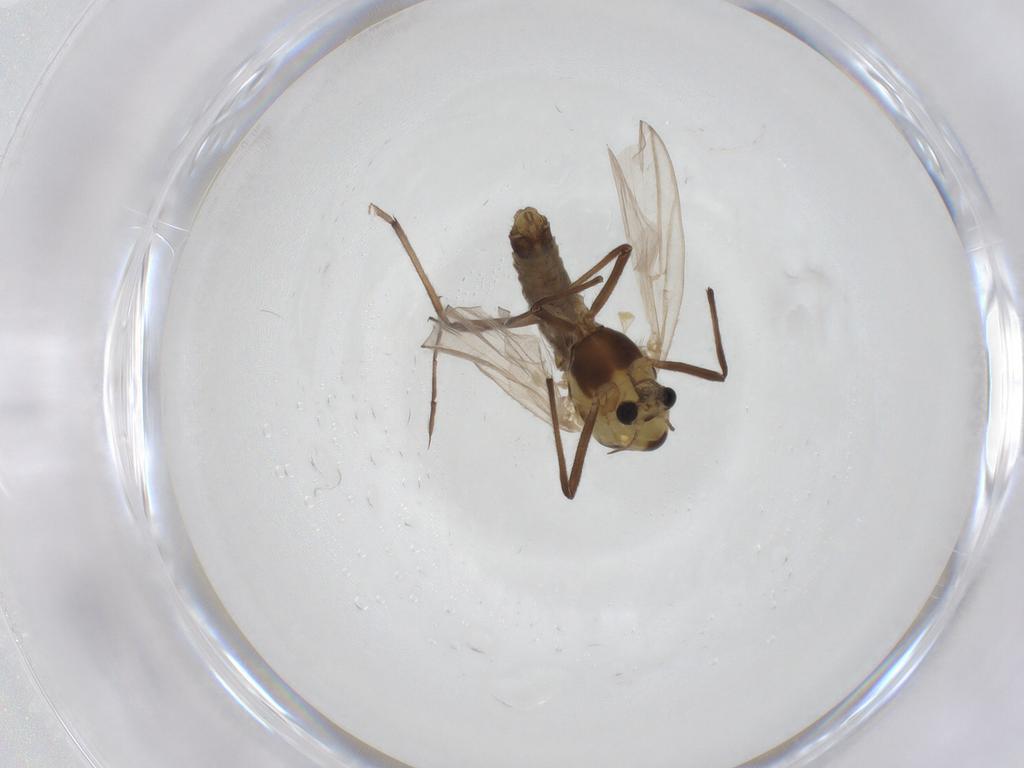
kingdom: Animalia
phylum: Arthropoda
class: Insecta
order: Diptera
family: Chironomidae
